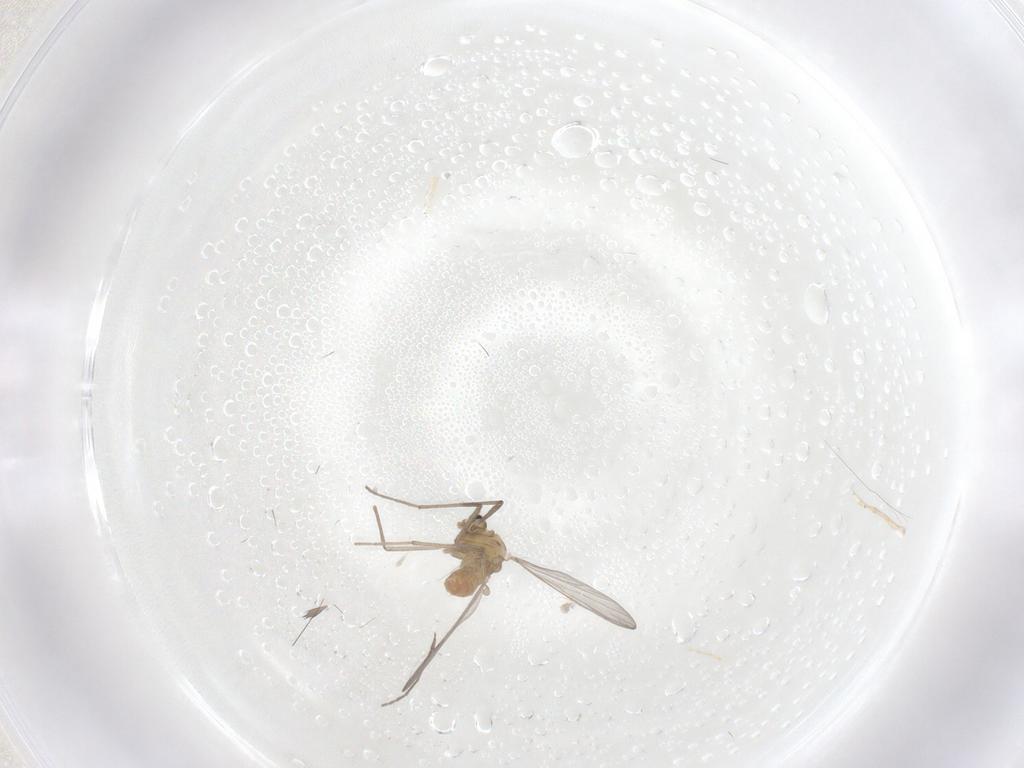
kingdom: Animalia
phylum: Arthropoda
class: Insecta
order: Diptera
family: Chironomidae
